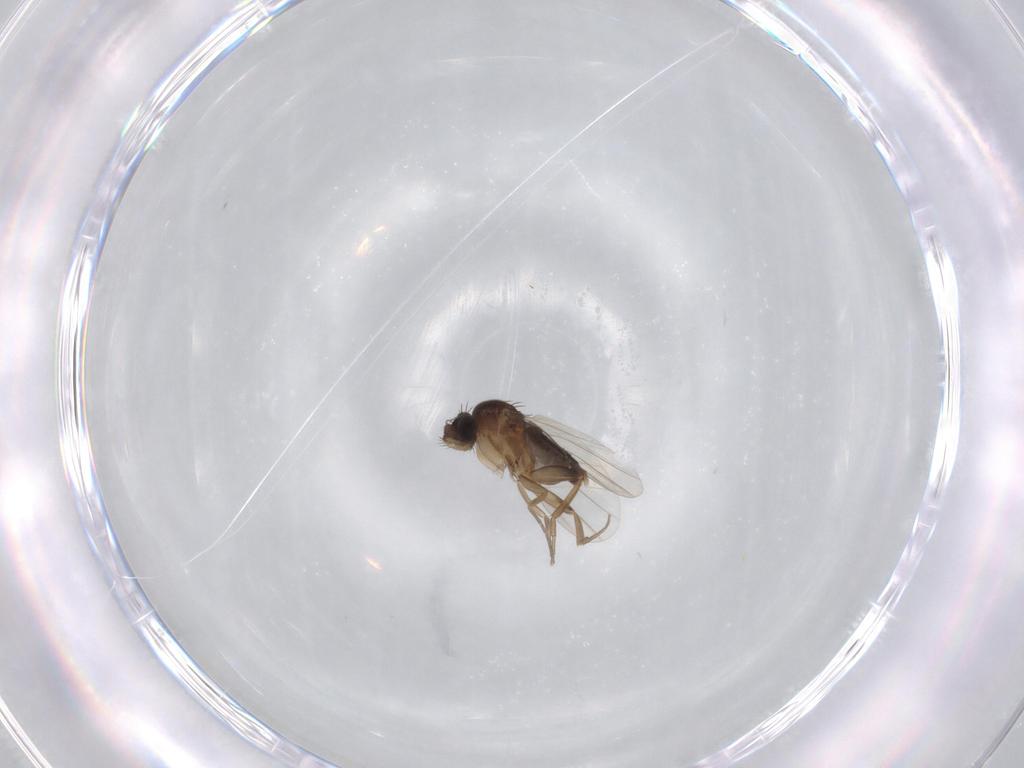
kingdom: Animalia
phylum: Arthropoda
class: Insecta
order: Diptera
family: Phoridae
